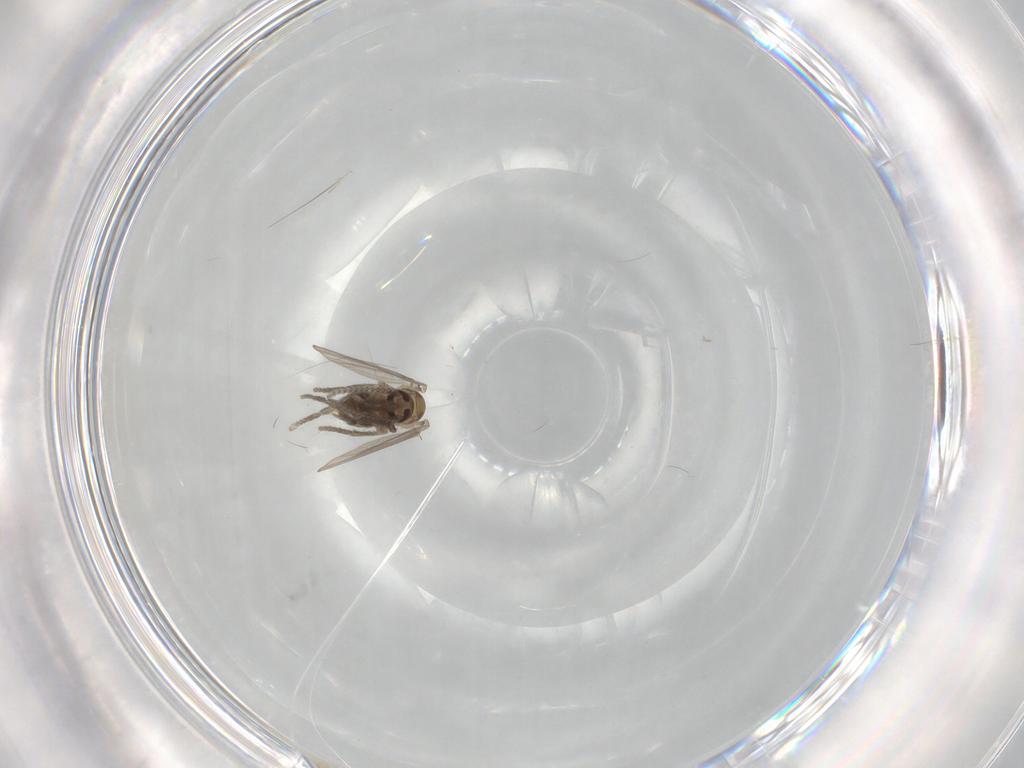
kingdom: Animalia
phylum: Arthropoda
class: Insecta
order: Diptera
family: Psychodidae
